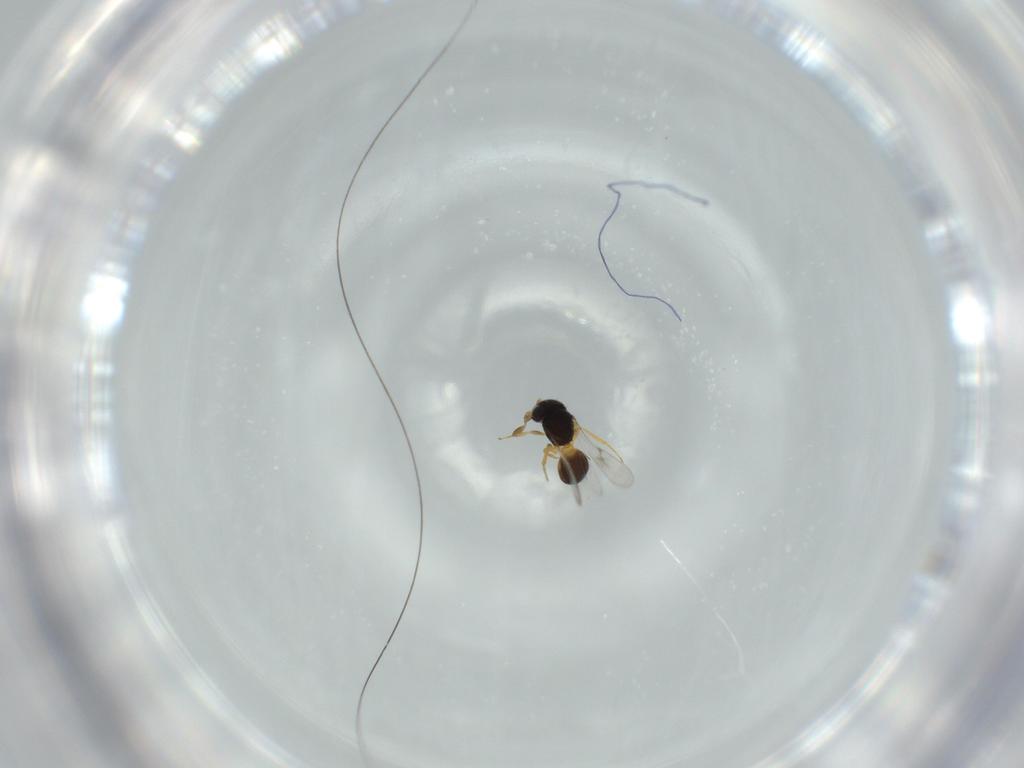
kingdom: Animalia
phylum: Arthropoda
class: Insecta
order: Hymenoptera
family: Scelionidae
